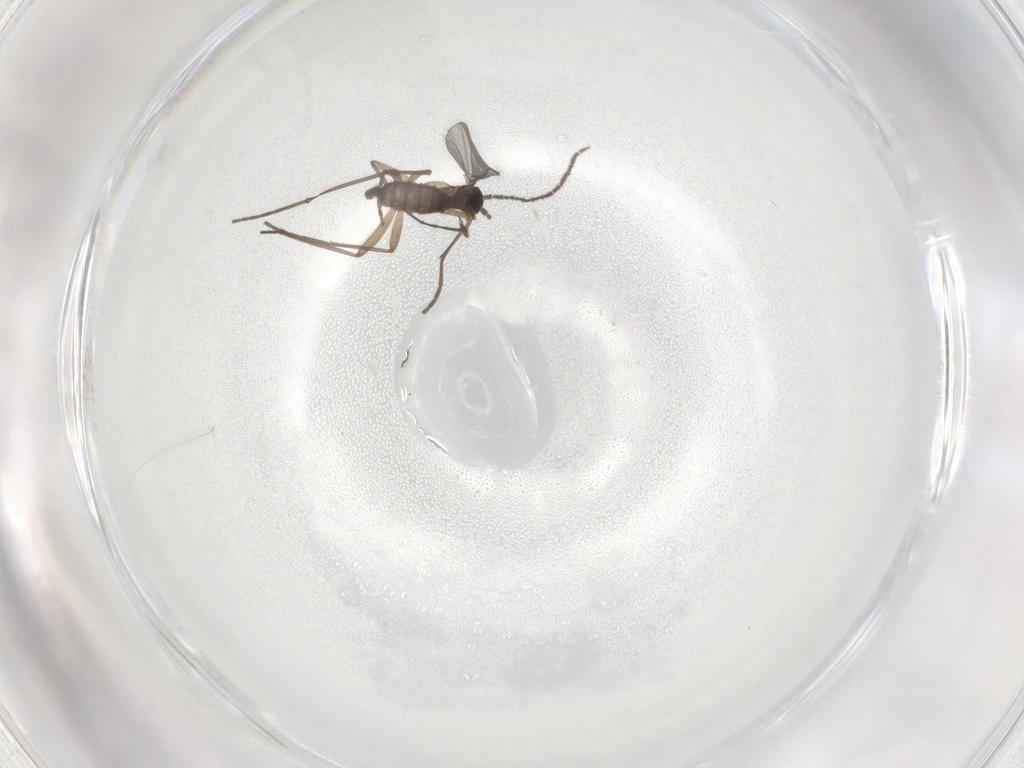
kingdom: Animalia
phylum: Arthropoda
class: Insecta
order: Diptera
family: Sciaridae
